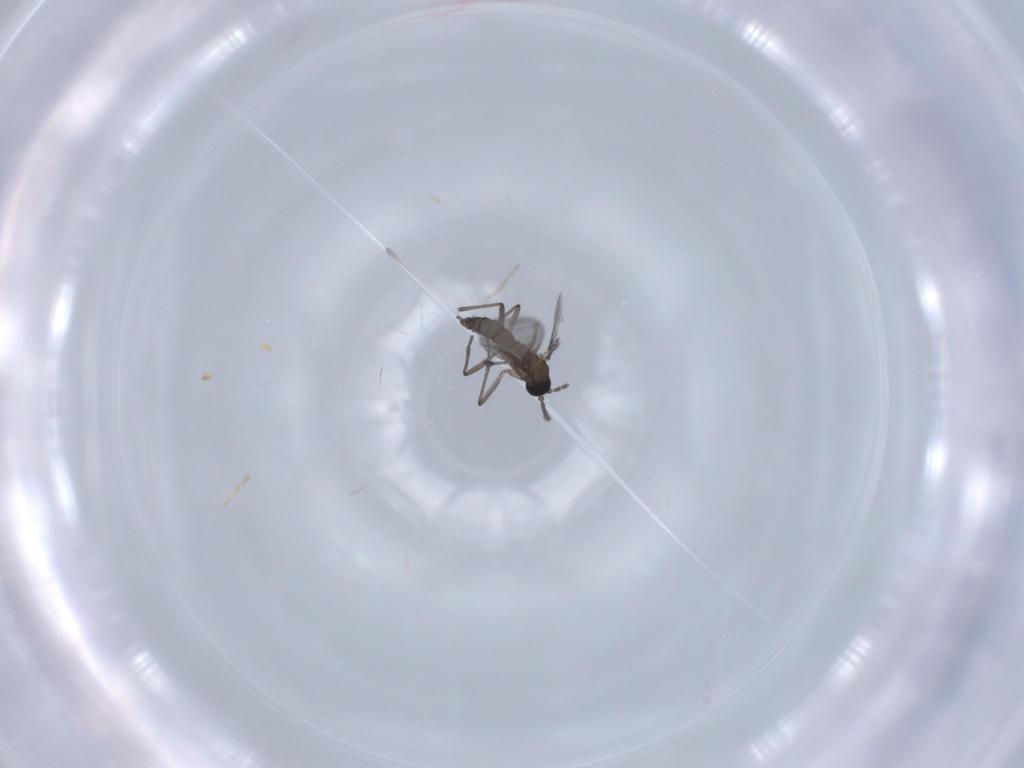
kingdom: Animalia
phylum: Arthropoda
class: Insecta
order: Diptera
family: Sciaridae
